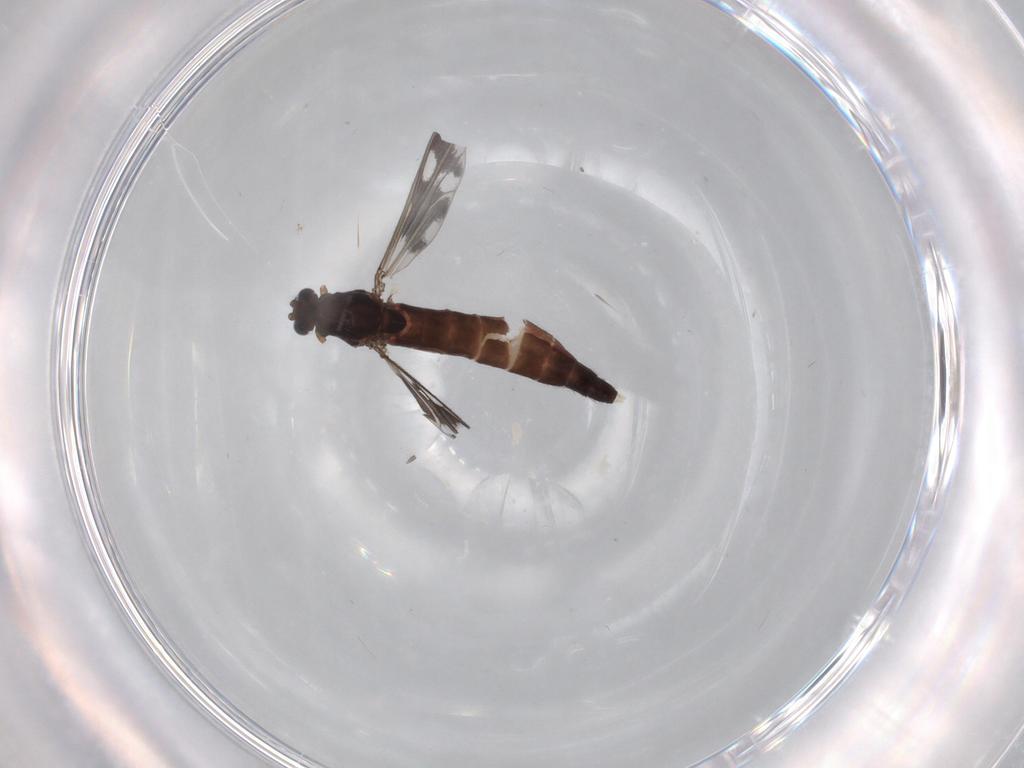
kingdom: Animalia
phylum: Arthropoda
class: Insecta
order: Diptera
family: Chironomidae
